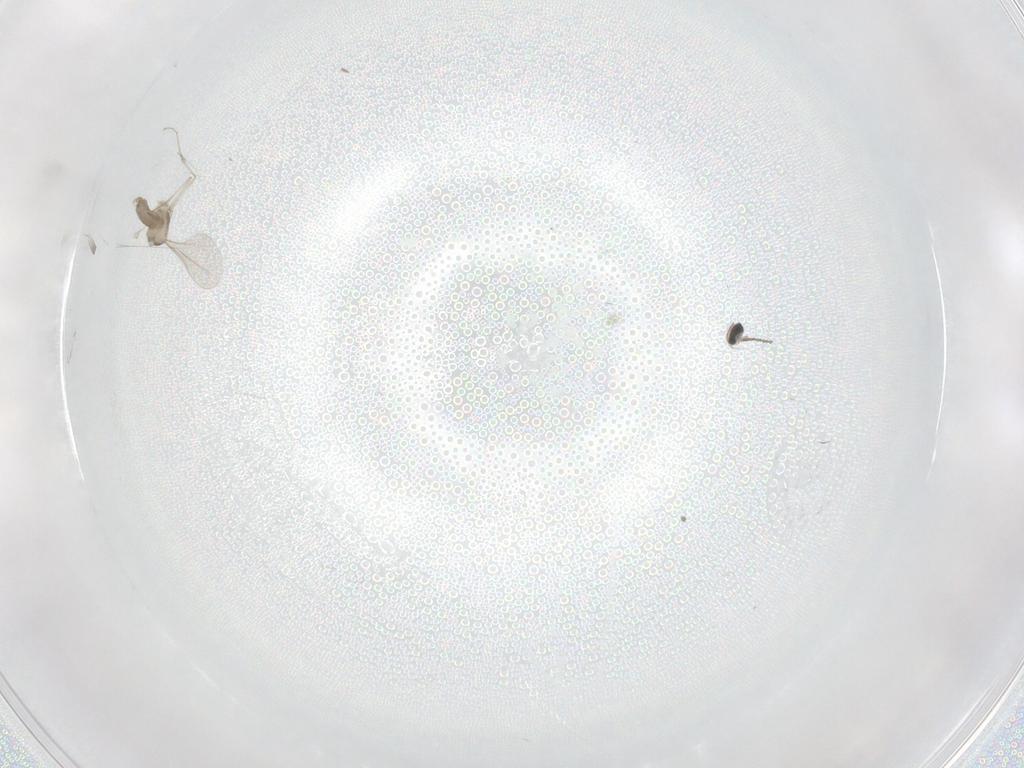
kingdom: Animalia
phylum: Arthropoda
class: Insecta
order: Diptera
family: Cecidomyiidae
